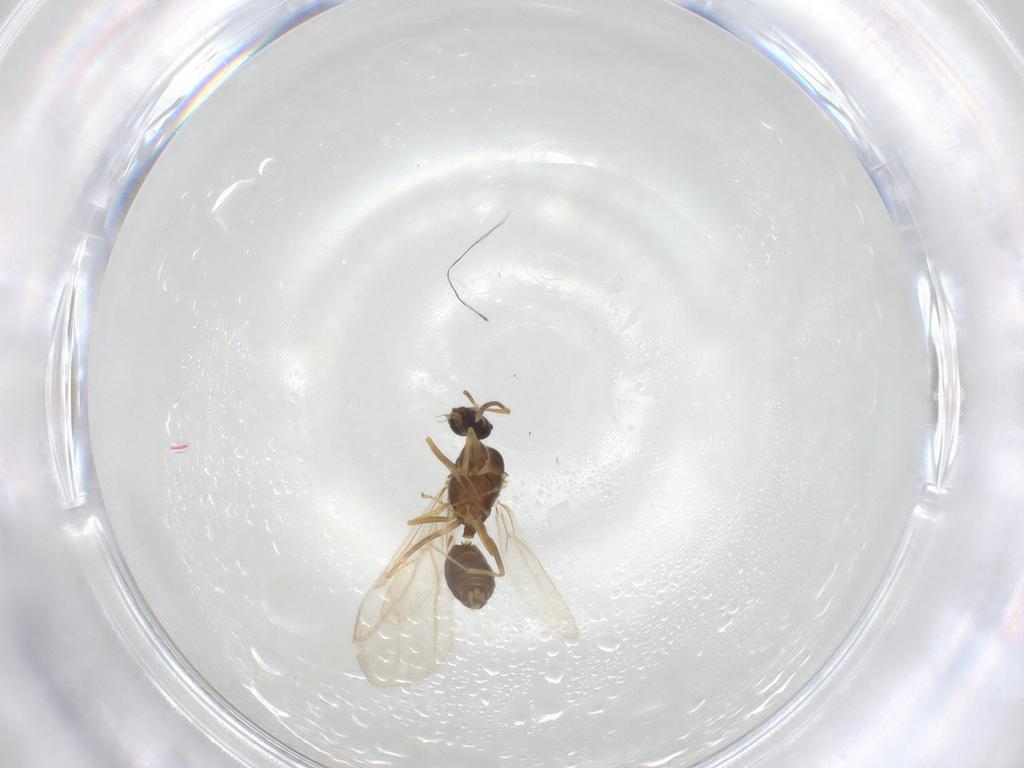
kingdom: Animalia
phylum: Arthropoda
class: Insecta
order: Hymenoptera
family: Formicidae
